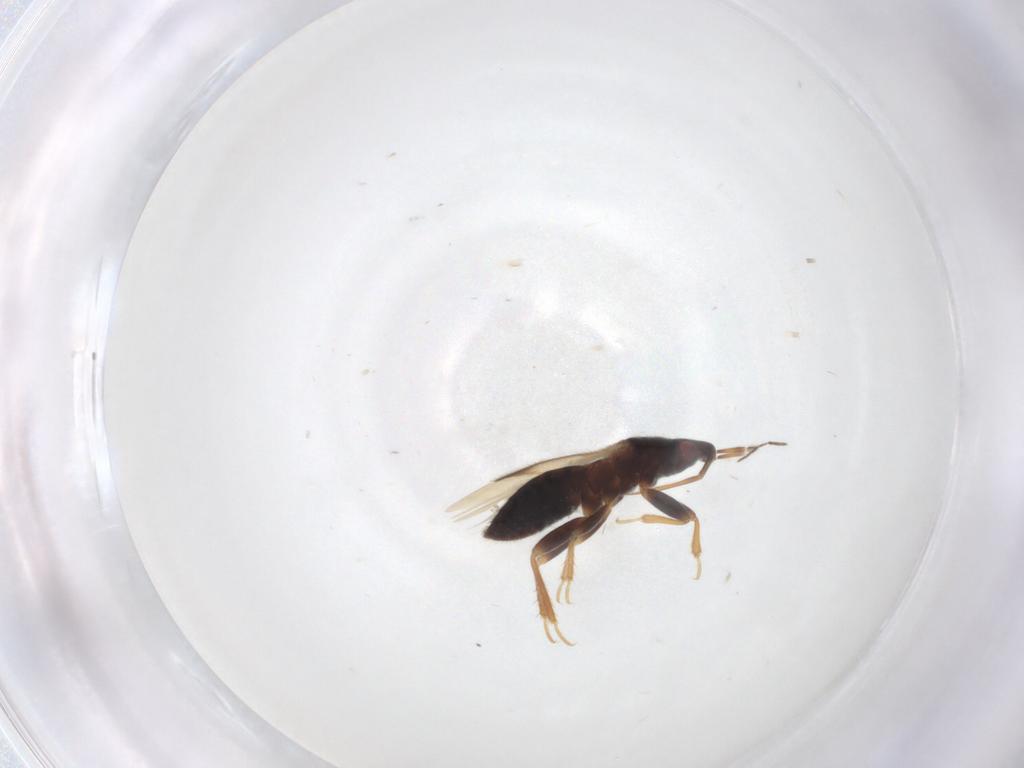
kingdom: Animalia
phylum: Arthropoda
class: Insecta
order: Hemiptera
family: Anthocoridae
